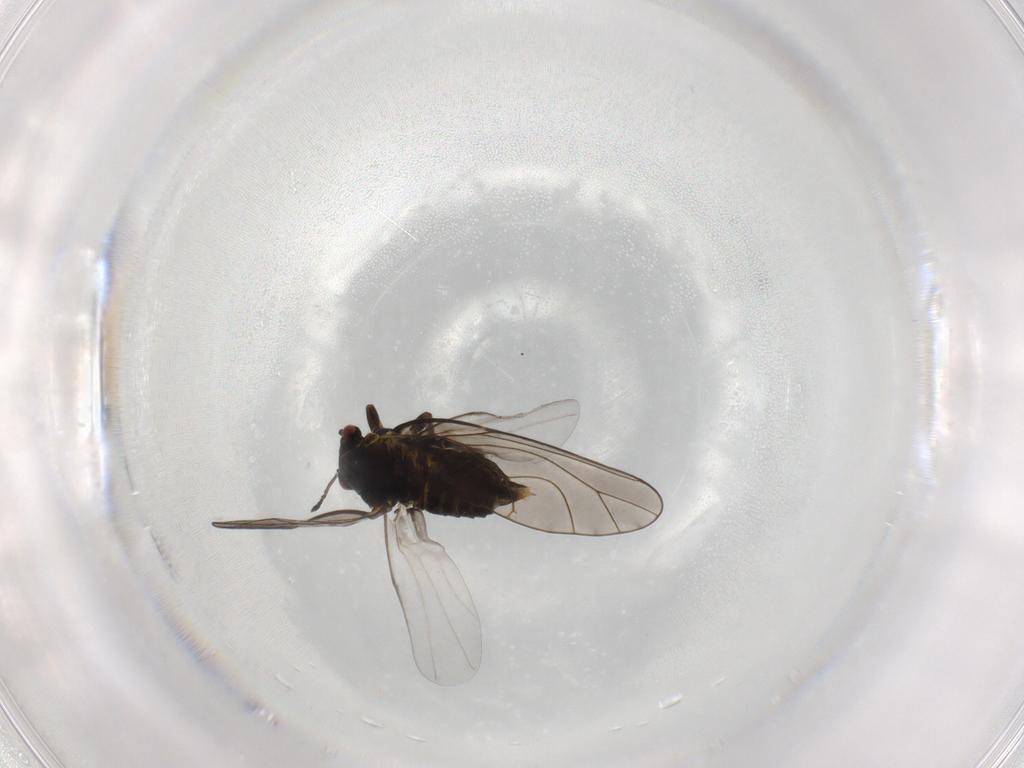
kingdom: Animalia
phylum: Arthropoda
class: Insecta
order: Hemiptera
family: Psylloidea_incertae_sedis
